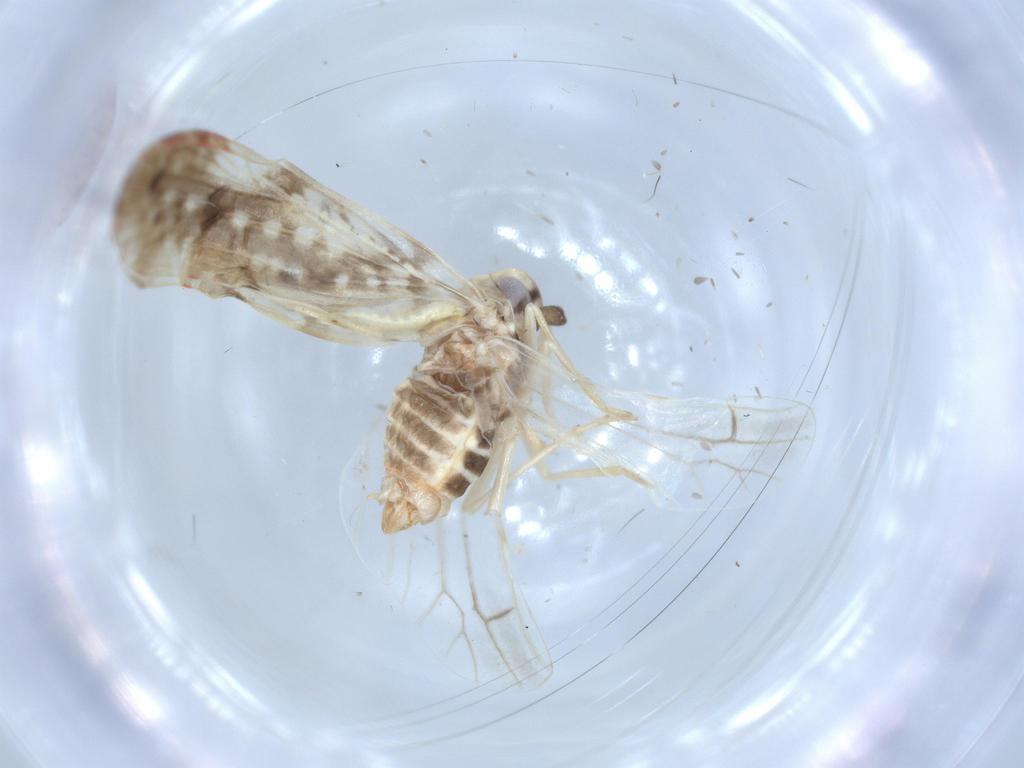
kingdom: Animalia
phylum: Arthropoda
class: Insecta
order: Hemiptera
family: Derbidae
